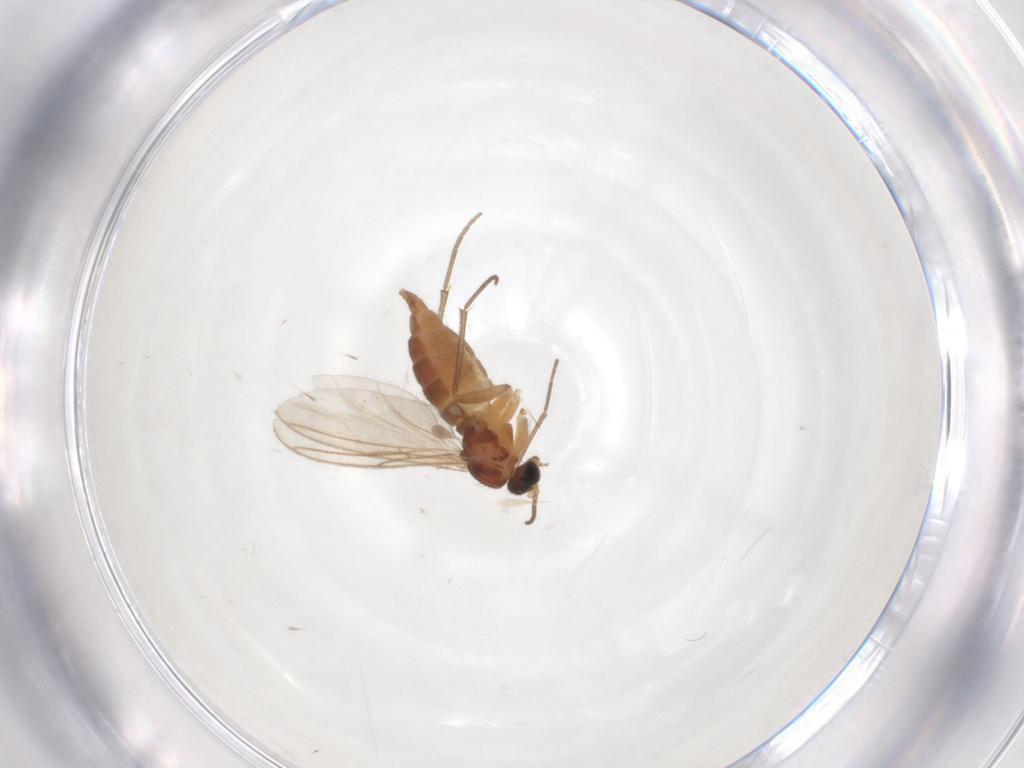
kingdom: Animalia
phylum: Arthropoda
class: Insecta
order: Diptera
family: Ceratopogonidae
